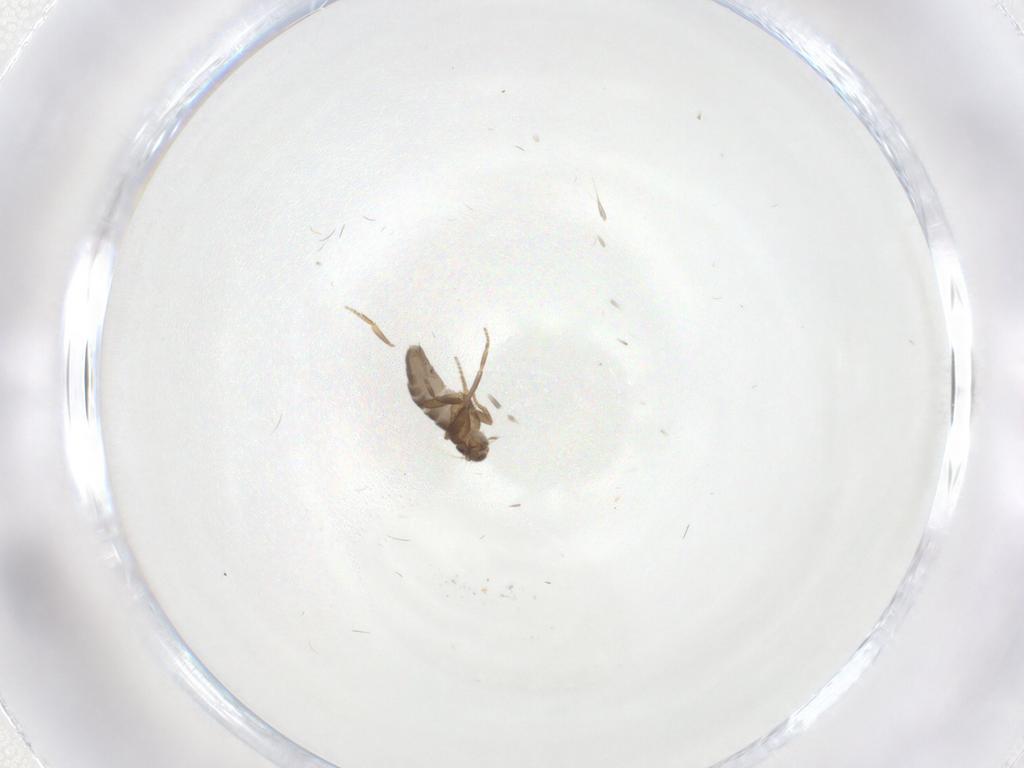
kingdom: Animalia
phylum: Arthropoda
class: Insecta
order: Diptera
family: Phoridae
